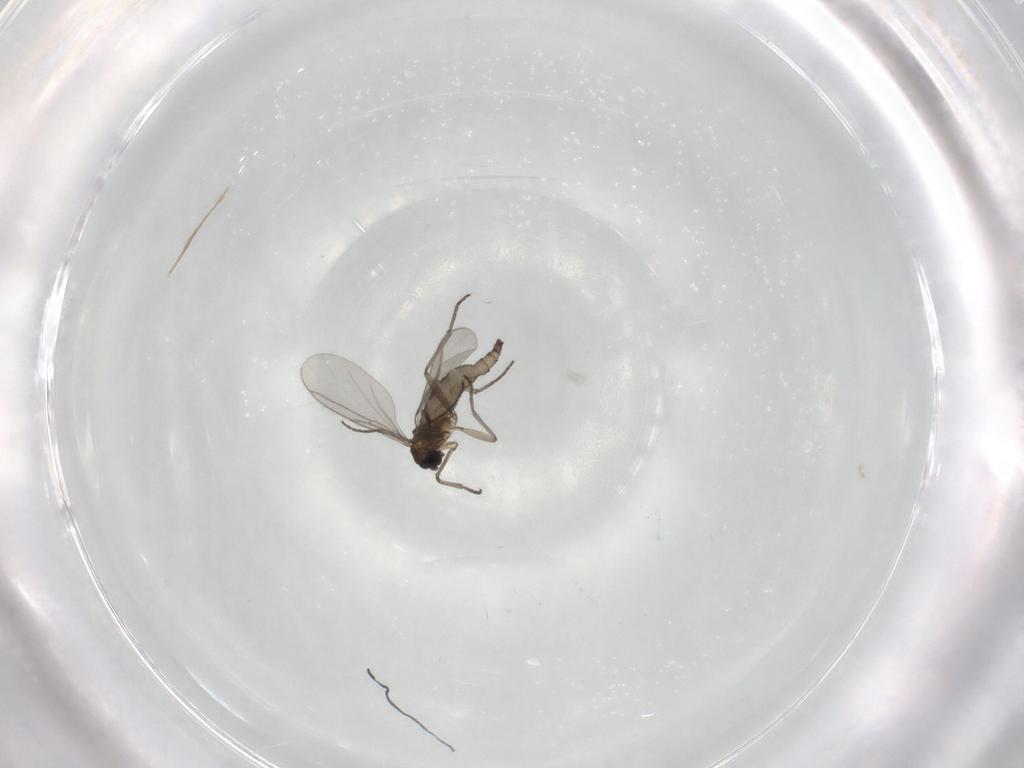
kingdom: Animalia
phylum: Arthropoda
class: Insecta
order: Diptera
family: Sciaridae
